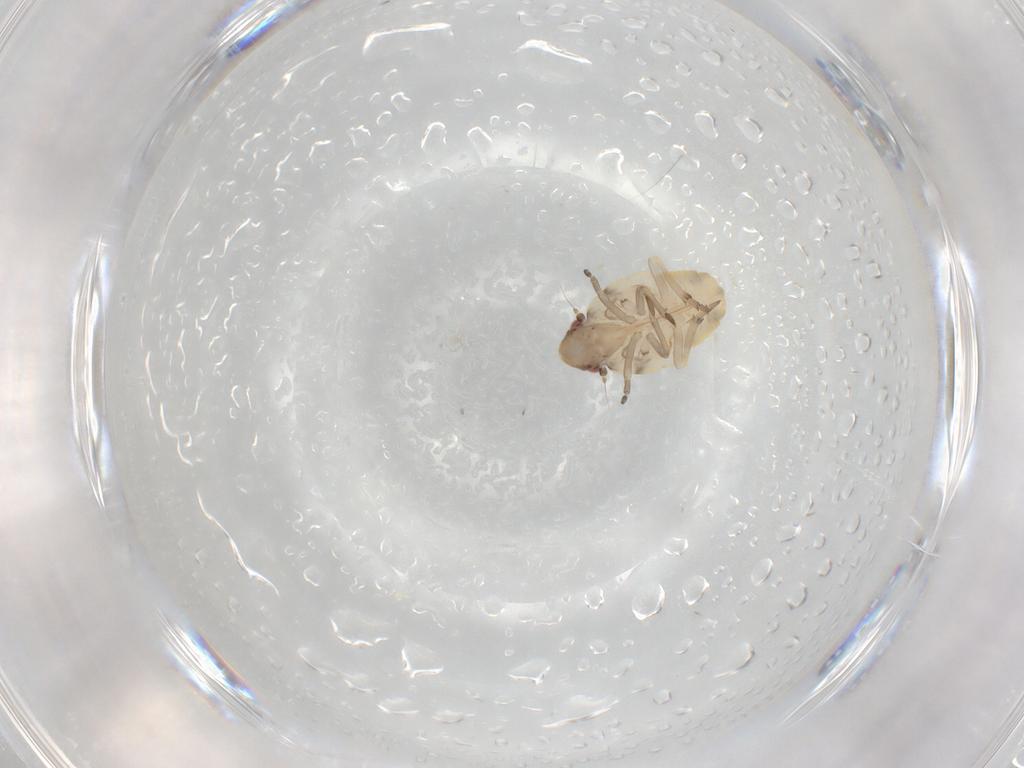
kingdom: Animalia
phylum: Arthropoda
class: Insecta
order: Hemiptera
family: Flatidae
